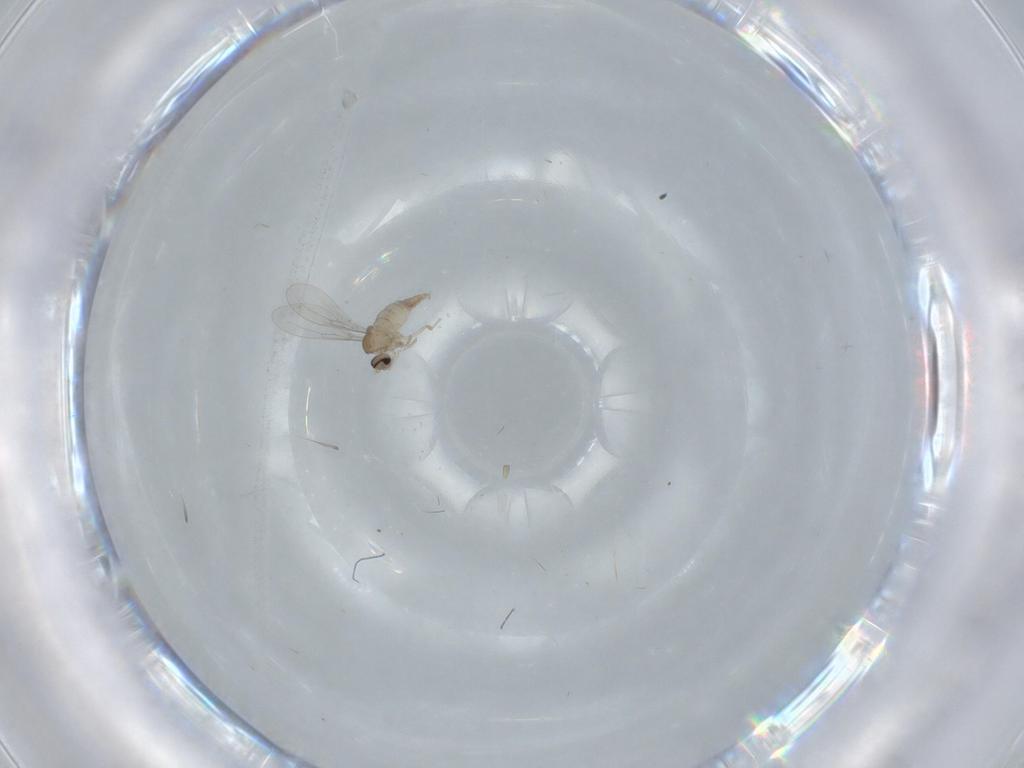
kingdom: Animalia
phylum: Arthropoda
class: Insecta
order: Diptera
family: Cecidomyiidae
